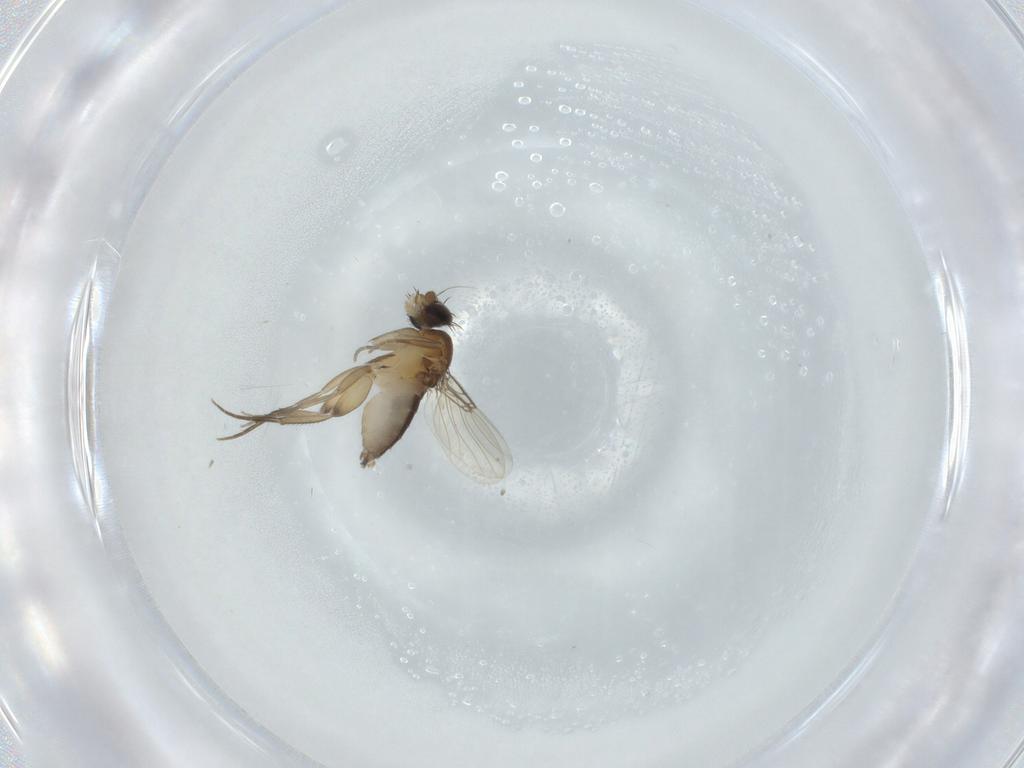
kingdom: Animalia
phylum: Arthropoda
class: Insecta
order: Diptera
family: Phoridae
